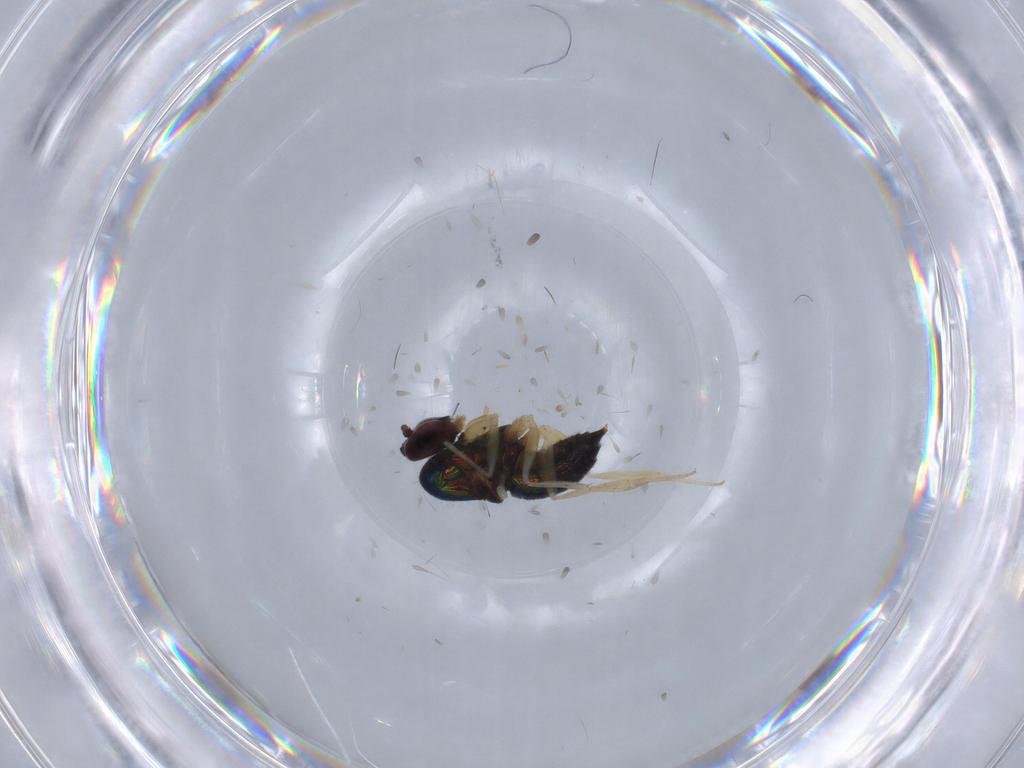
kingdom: Animalia
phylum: Arthropoda
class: Insecta
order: Diptera
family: Dolichopodidae
